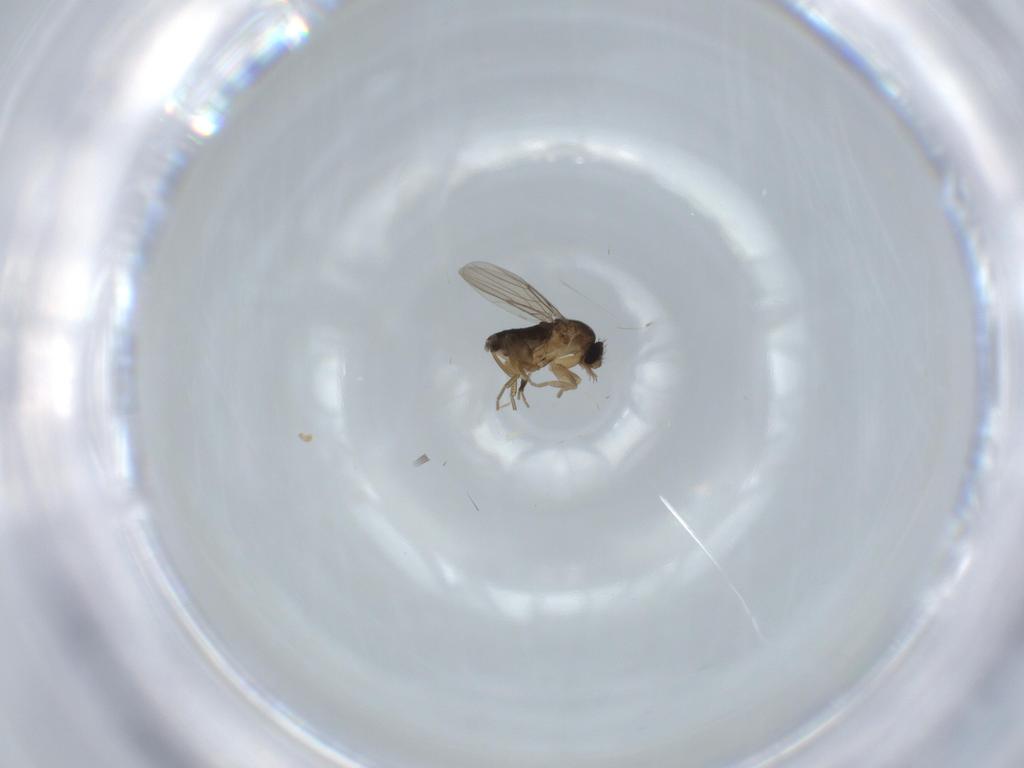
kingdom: Animalia
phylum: Arthropoda
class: Insecta
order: Diptera
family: Phoridae
